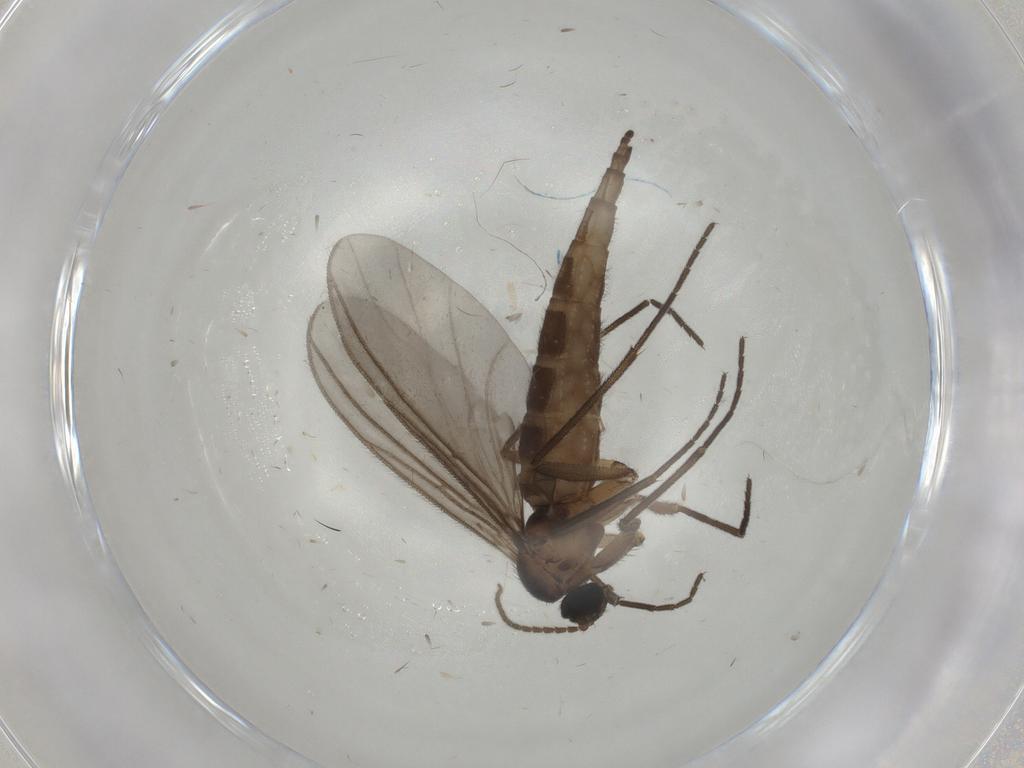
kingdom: Animalia
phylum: Arthropoda
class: Insecta
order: Diptera
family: Sciaridae
